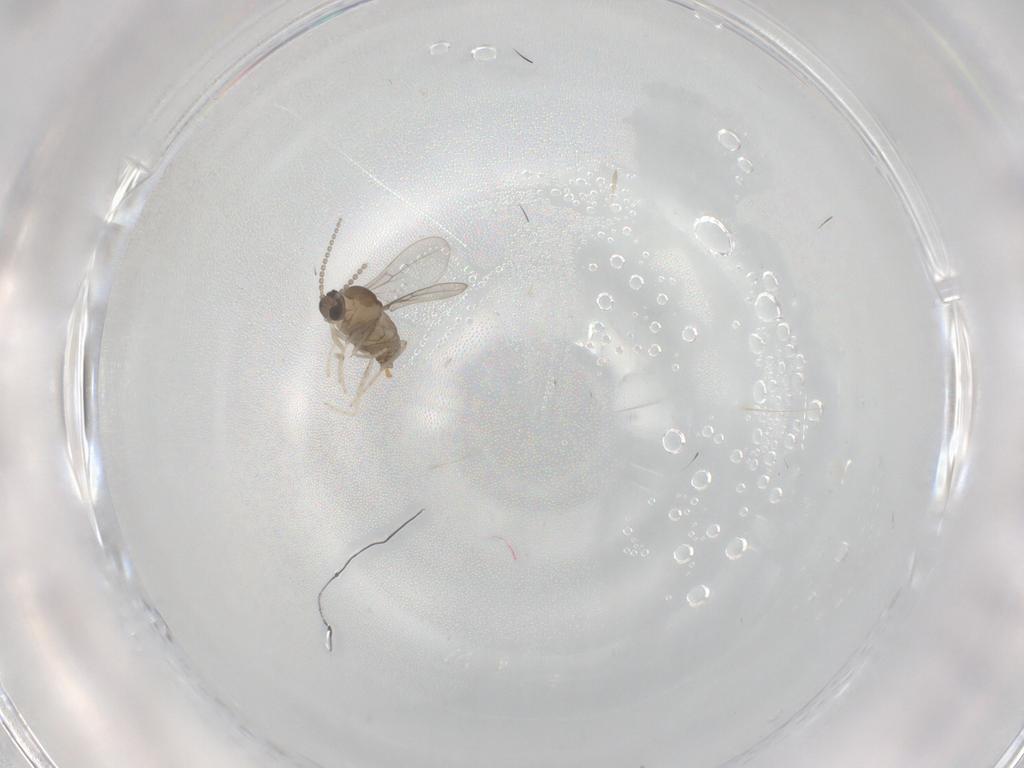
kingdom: Animalia
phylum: Arthropoda
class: Insecta
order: Diptera
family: Cecidomyiidae
